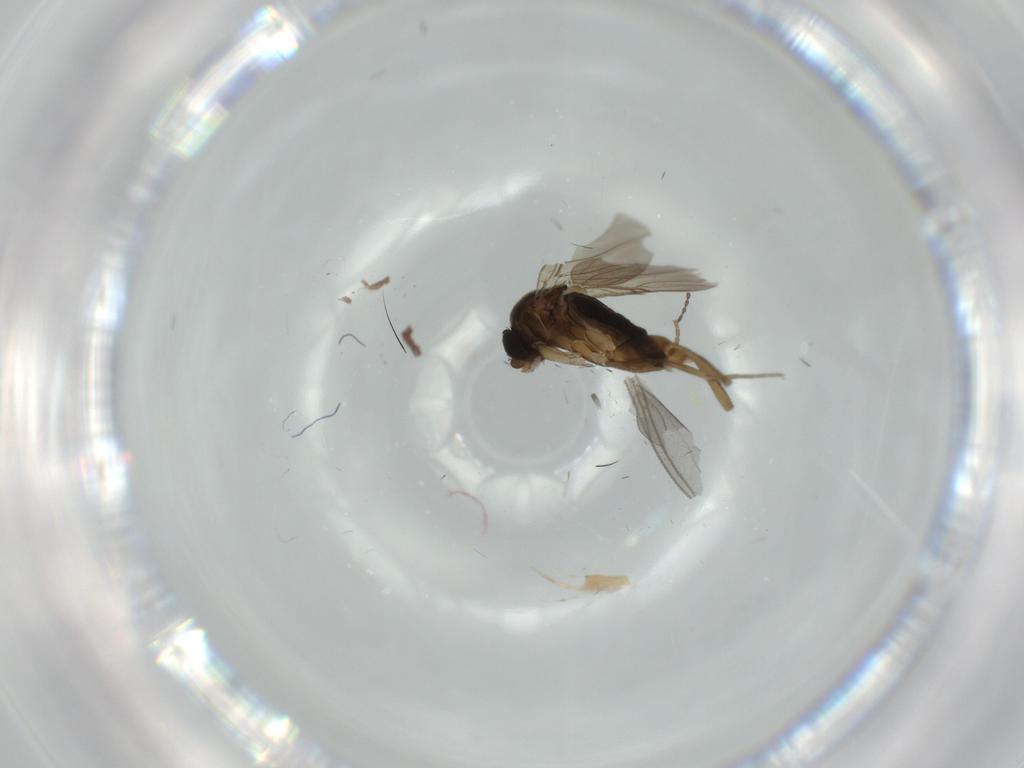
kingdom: Animalia
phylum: Arthropoda
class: Insecta
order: Diptera
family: Phoridae
